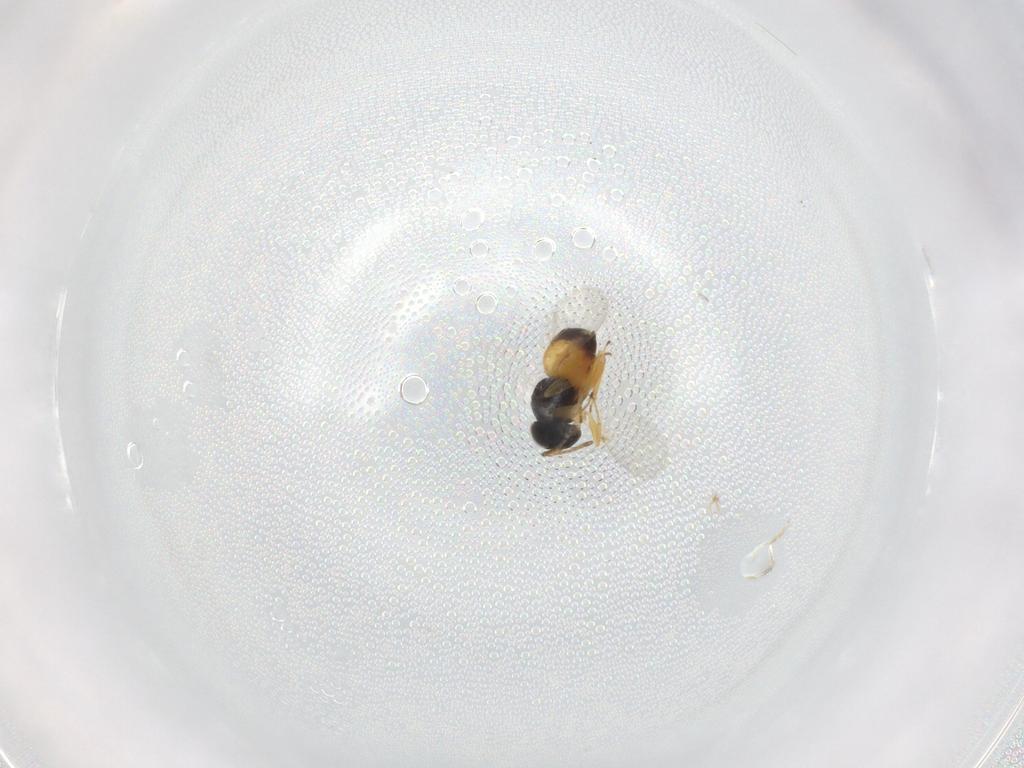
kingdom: Animalia
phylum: Arthropoda
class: Insecta
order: Hymenoptera
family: Encyrtidae
